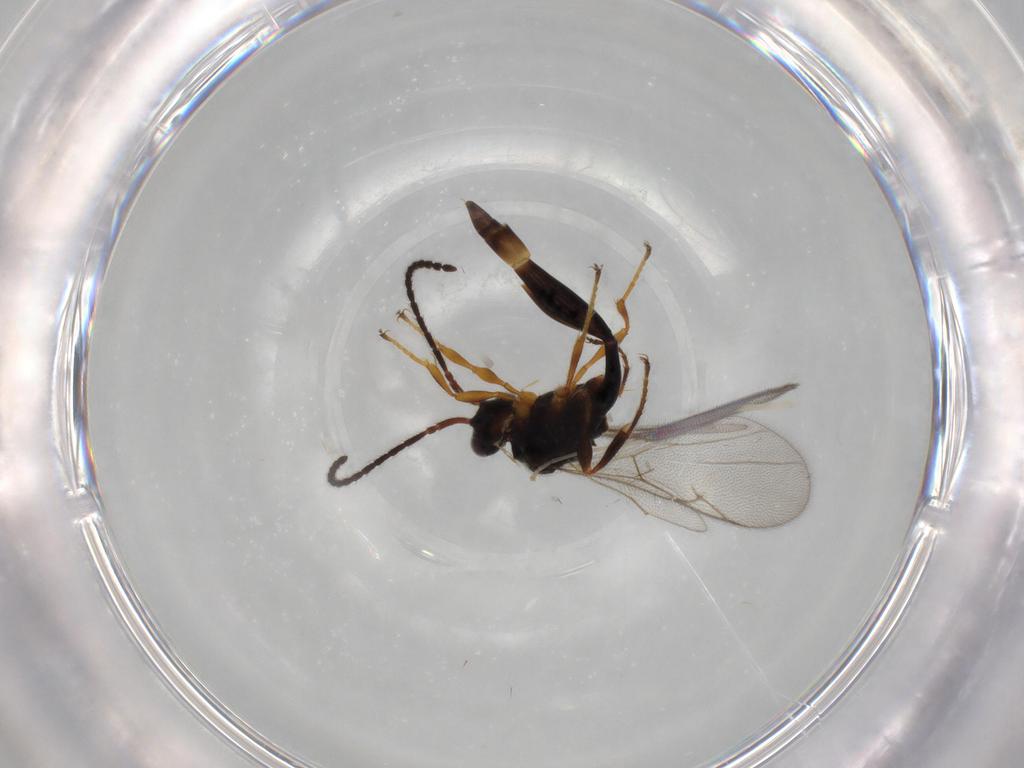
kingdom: Animalia
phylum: Arthropoda
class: Insecta
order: Hymenoptera
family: Diapriidae
